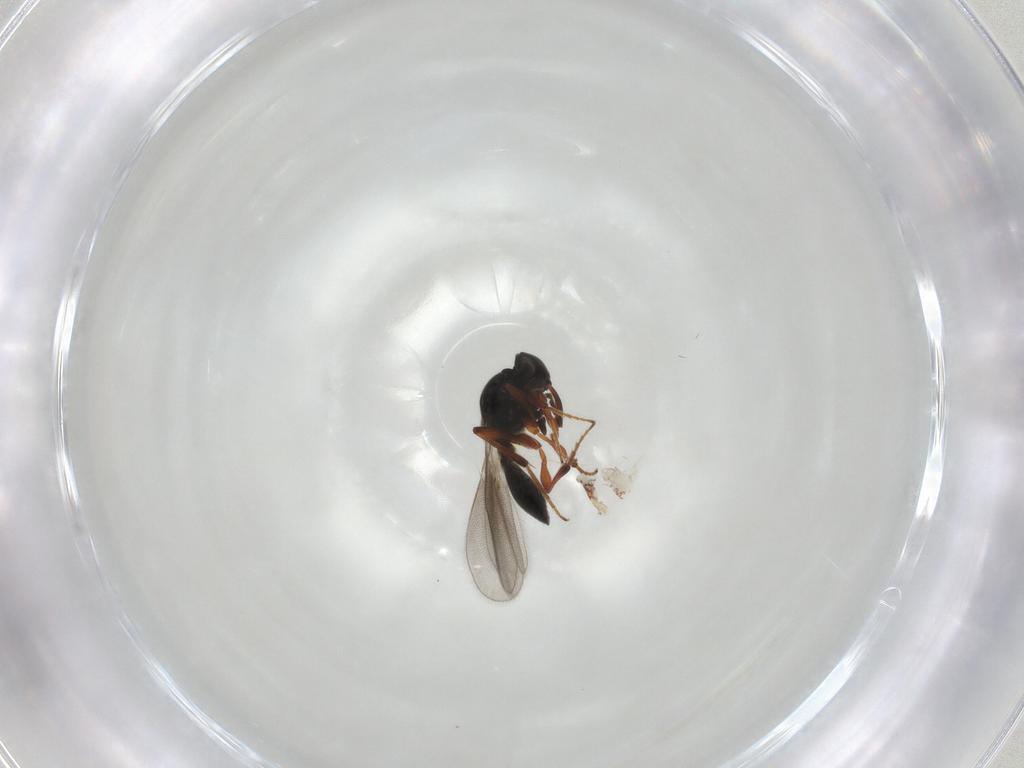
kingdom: Animalia
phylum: Arthropoda
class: Insecta
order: Hymenoptera
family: Platygastridae
